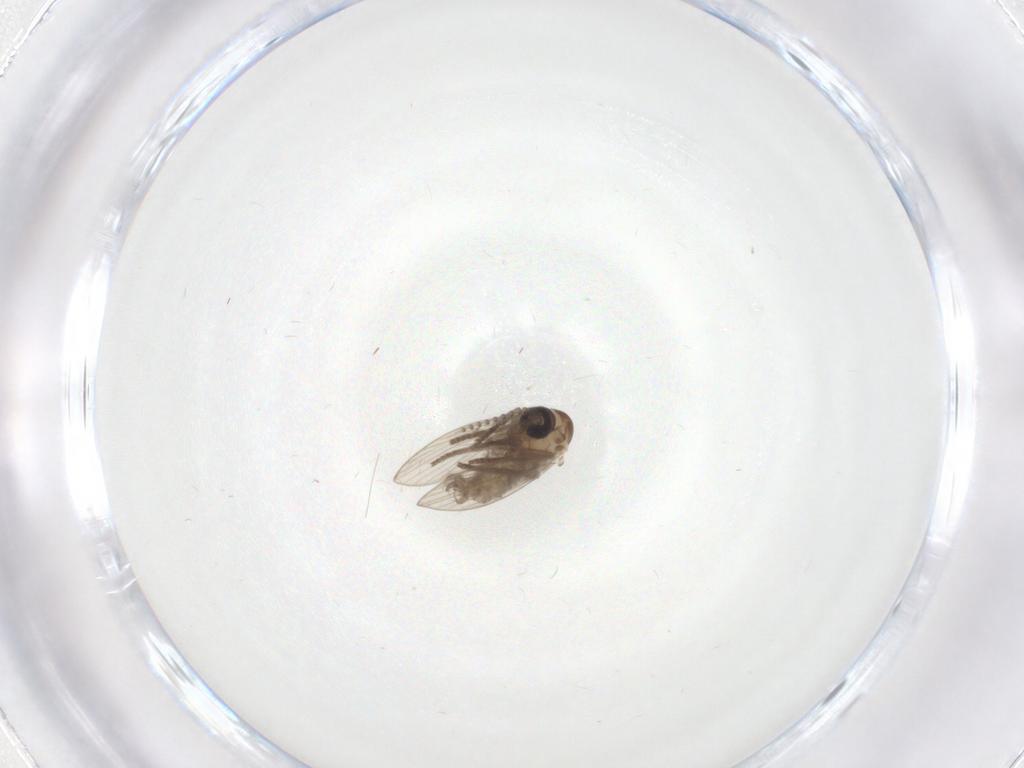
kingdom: Animalia
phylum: Arthropoda
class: Insecta
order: Diptera
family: Psychodidae
